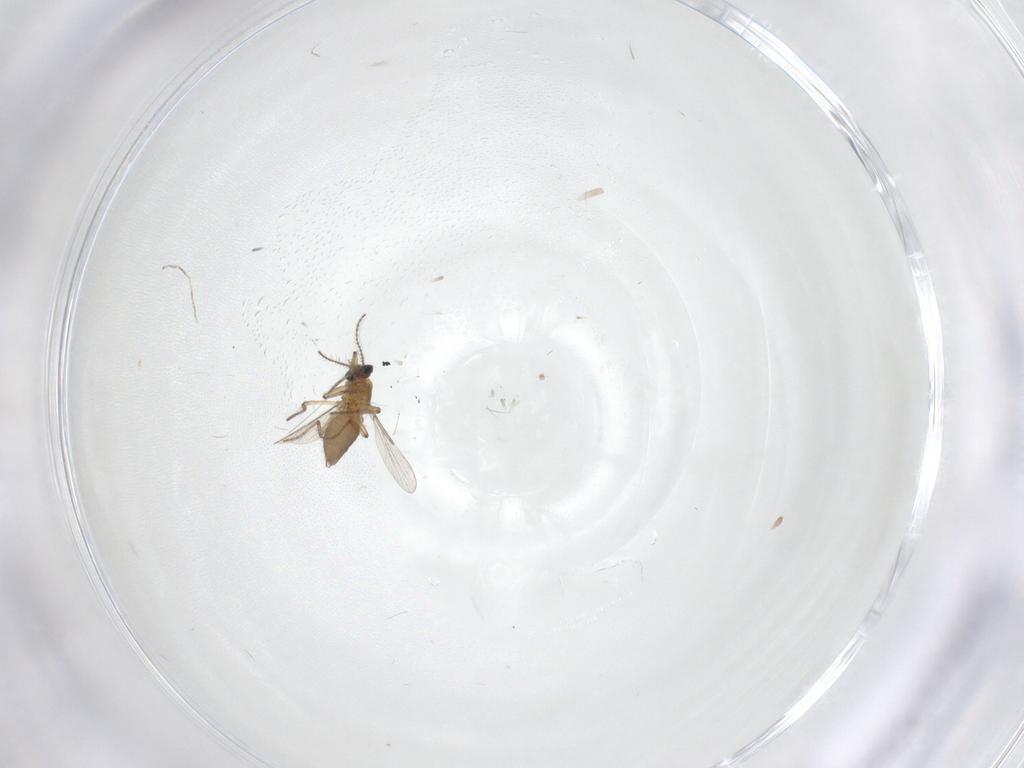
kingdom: Animalia
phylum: Arthropoda
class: Insecta
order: Diptera
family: Ceratopogonidae
